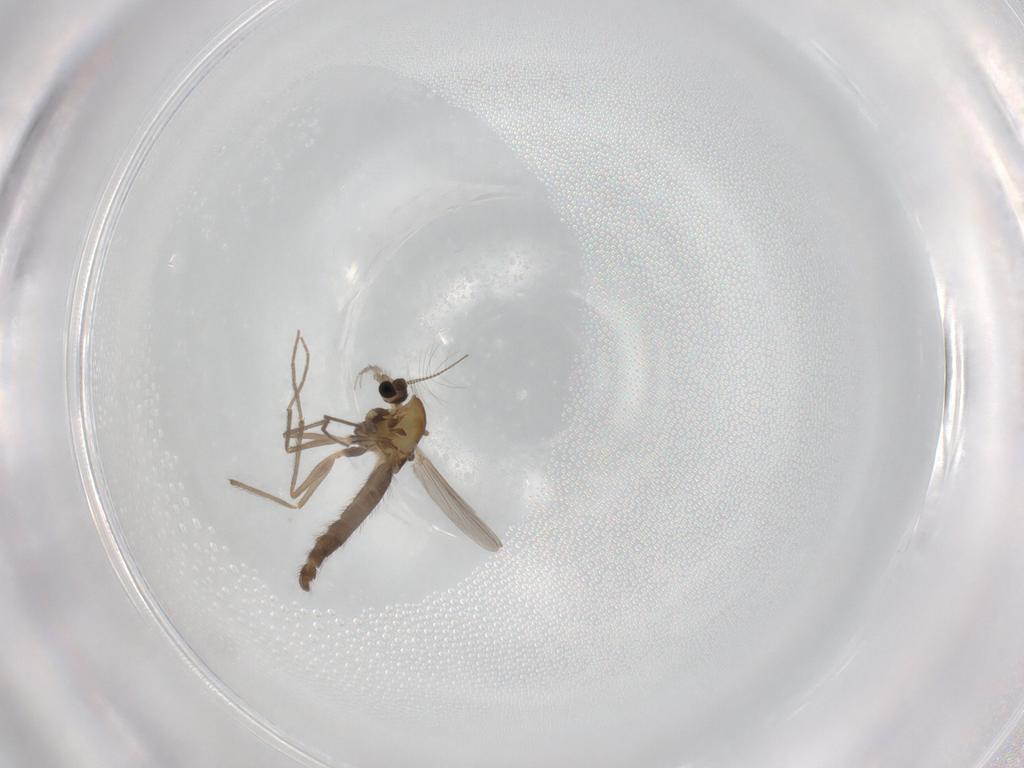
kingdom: Animalia
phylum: Arthropoda
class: Insecta
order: Diptera
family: Chironomidae
